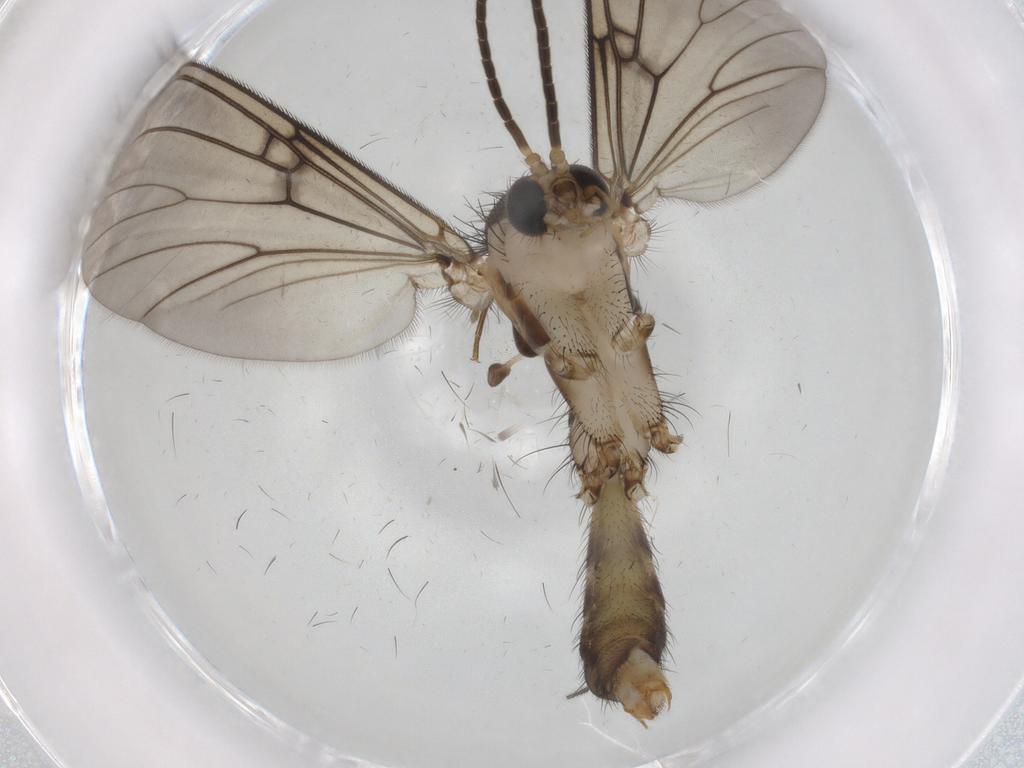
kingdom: Animalia
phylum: Arthropoda
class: Insecta
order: Diptera
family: Sciaridae
